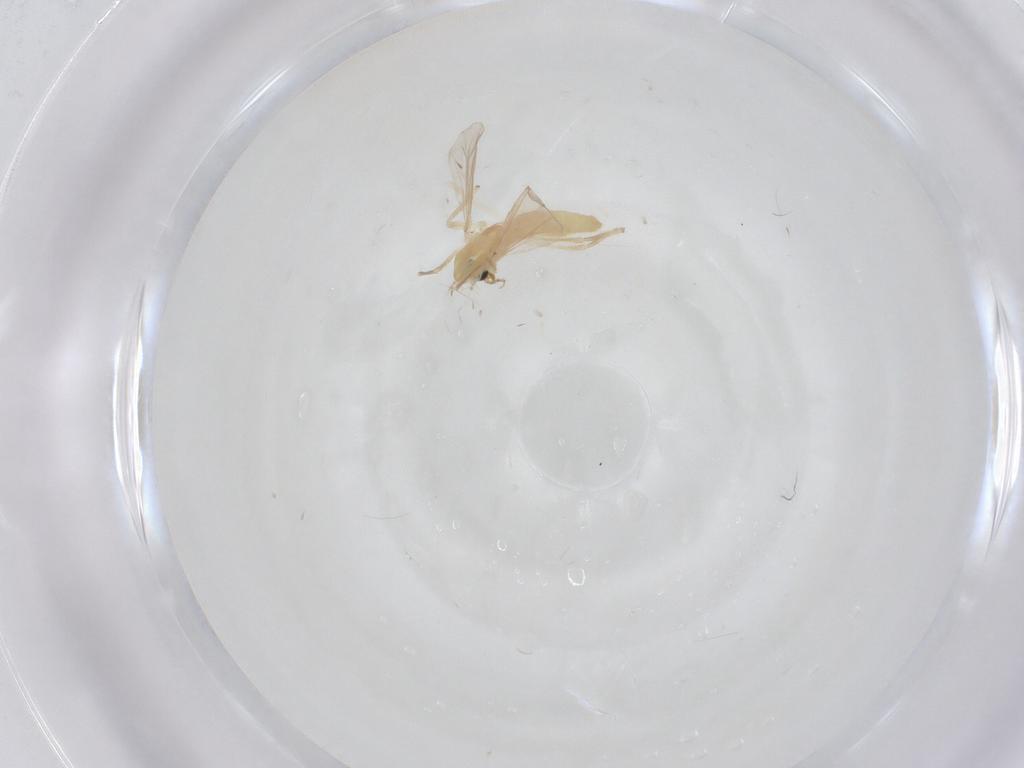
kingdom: Animalia
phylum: Arthropoda
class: Insecta
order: Diptera
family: Chironomidae
